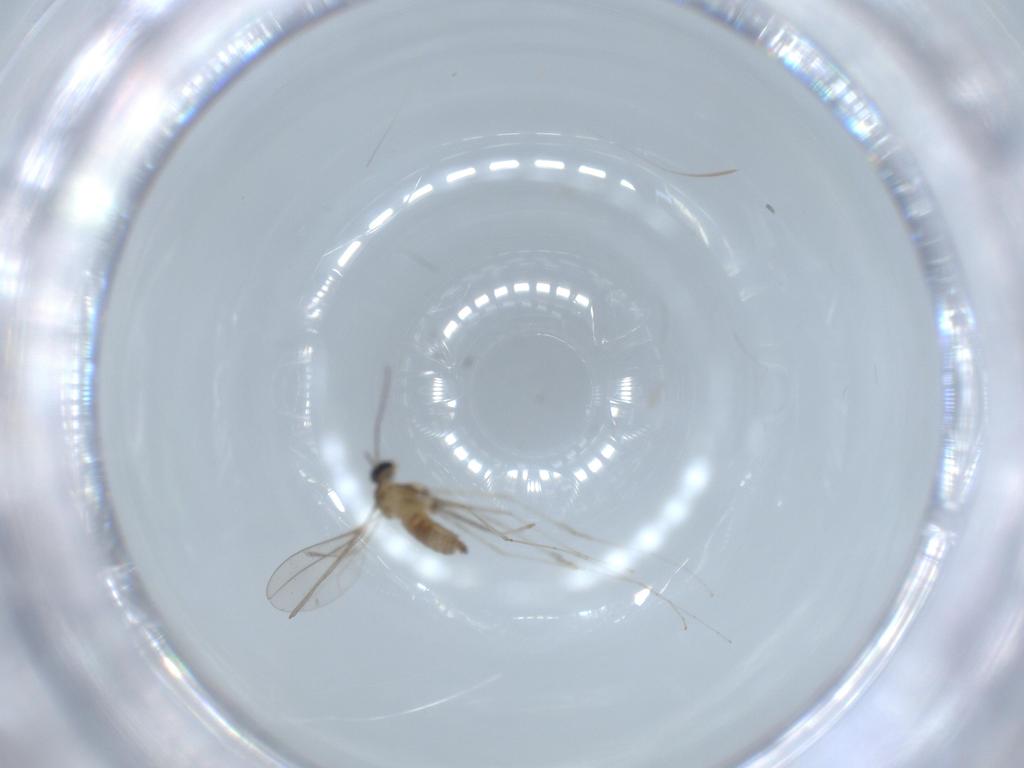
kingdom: Animalia
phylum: Arthropoda
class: Insecta
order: Diptera
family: Cecidomyiidae
